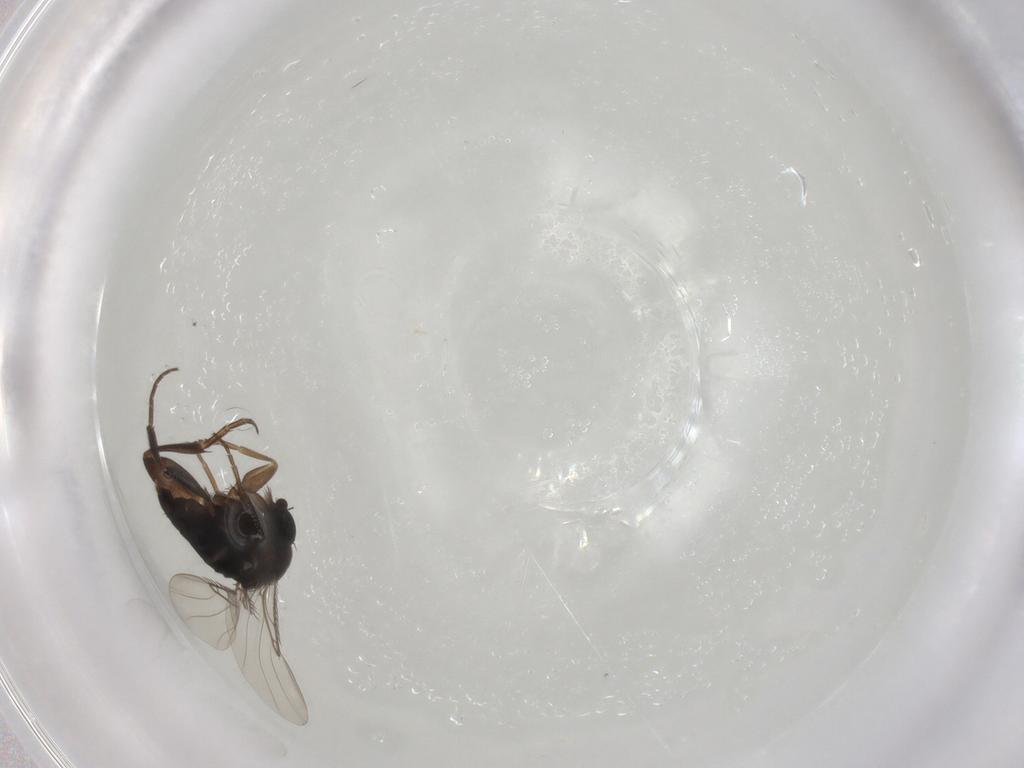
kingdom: Animalia
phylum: Arthropoda
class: Insecta
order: Diptera
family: Phoridae
